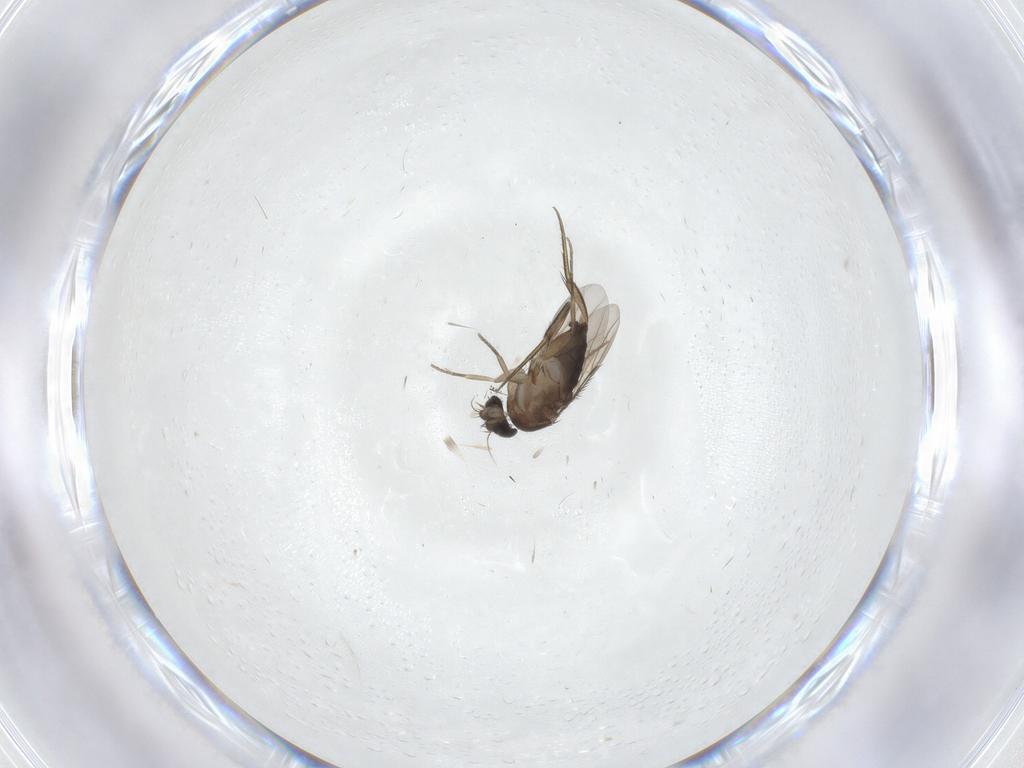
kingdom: Animalia
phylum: Arthropoda
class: Insecta
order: Diptera
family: Phoridae
